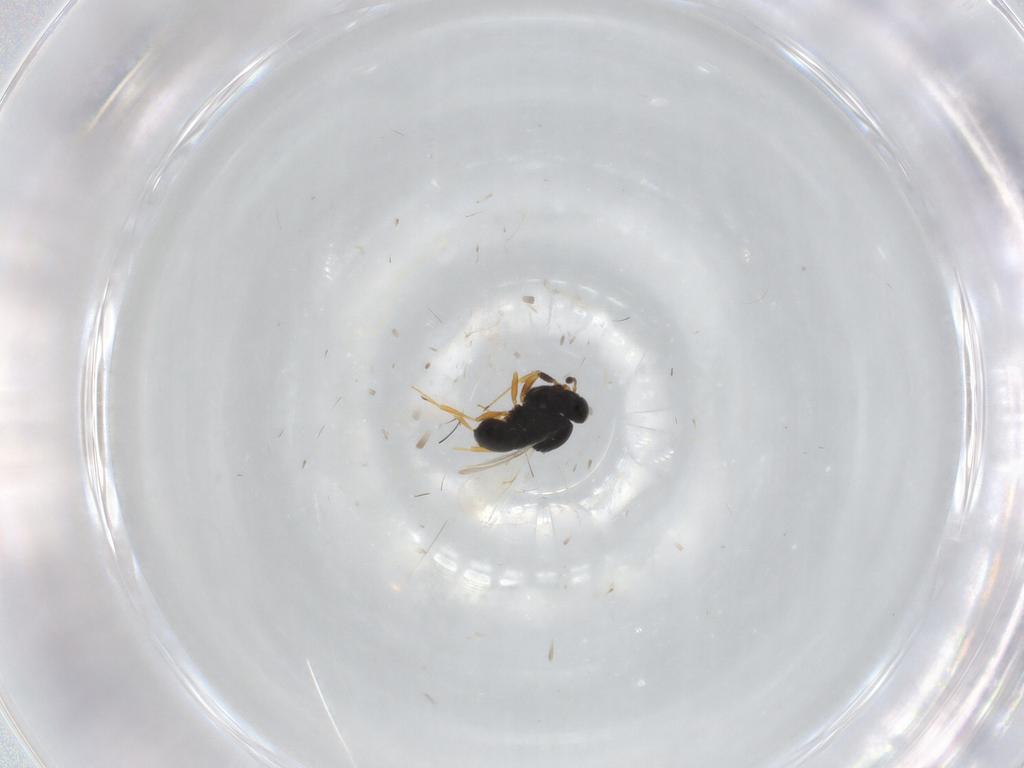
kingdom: Animalia
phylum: Arthropoda
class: Insecta
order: Hymenoptera
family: Scelionidae
